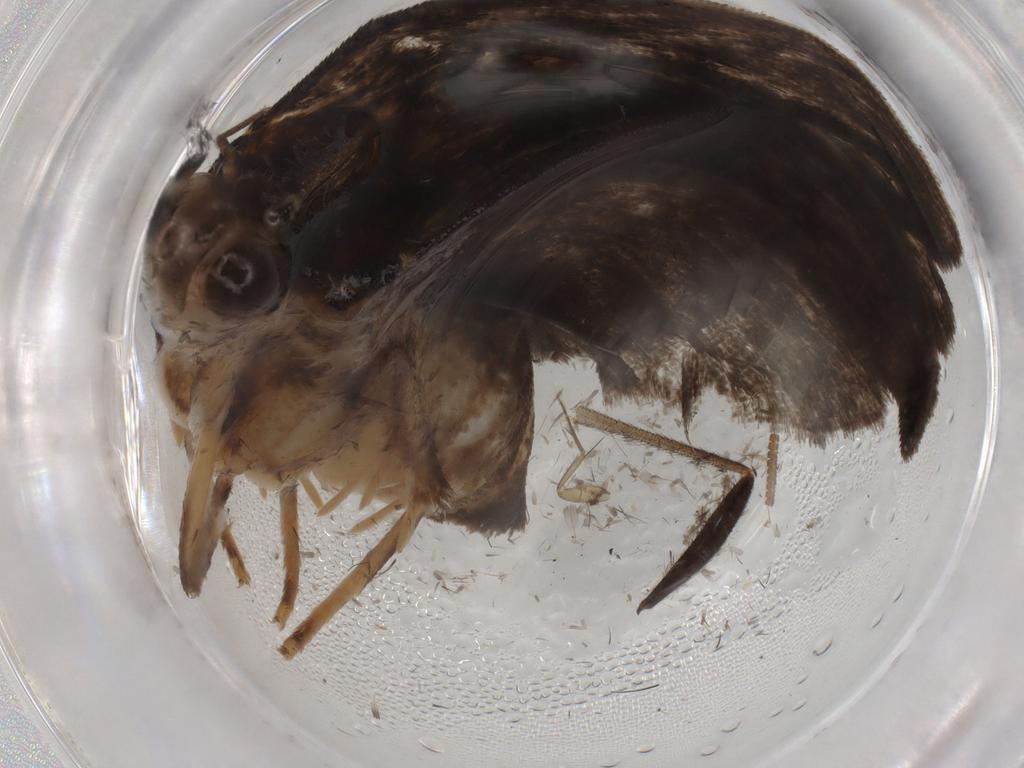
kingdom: Animalia
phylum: Arthropoda
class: Insecta
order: Lepidoptera
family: Immidae
